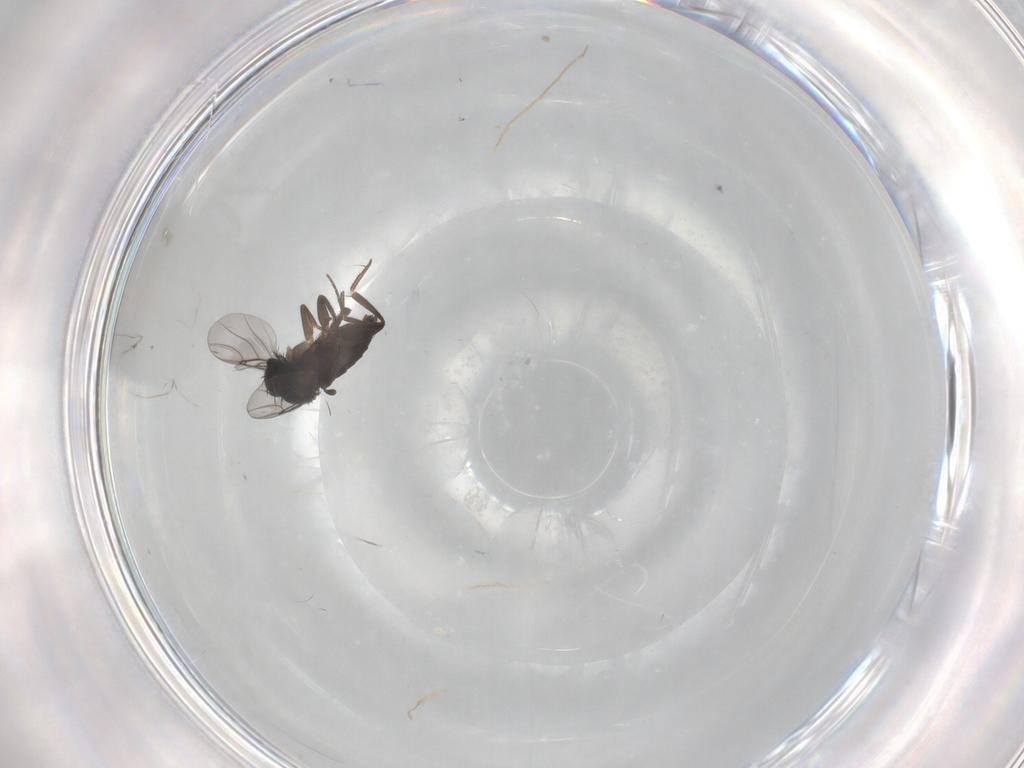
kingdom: Animalia
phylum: Arthropoda
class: Insecta
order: Diptera
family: Phoridae
